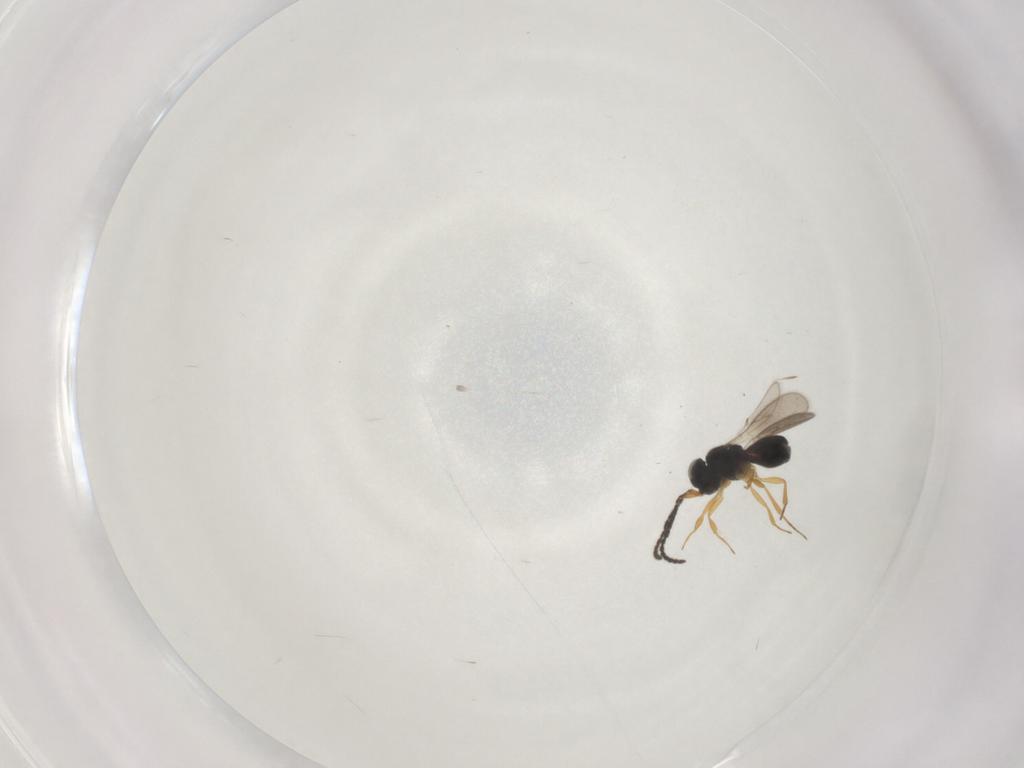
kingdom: Animalia
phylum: Arthropoda
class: Insecta
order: Hymenoptera
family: Scelionidae
